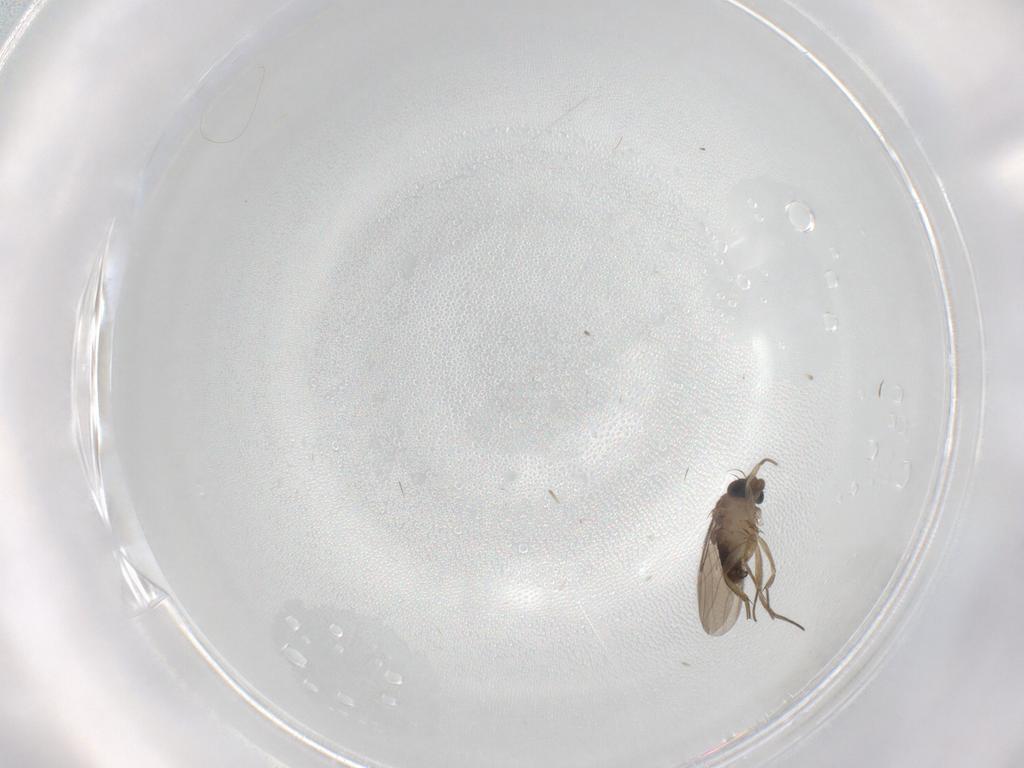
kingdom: Animalia
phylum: Arthropoda
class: Insecta
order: Diptera
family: Phoridae
